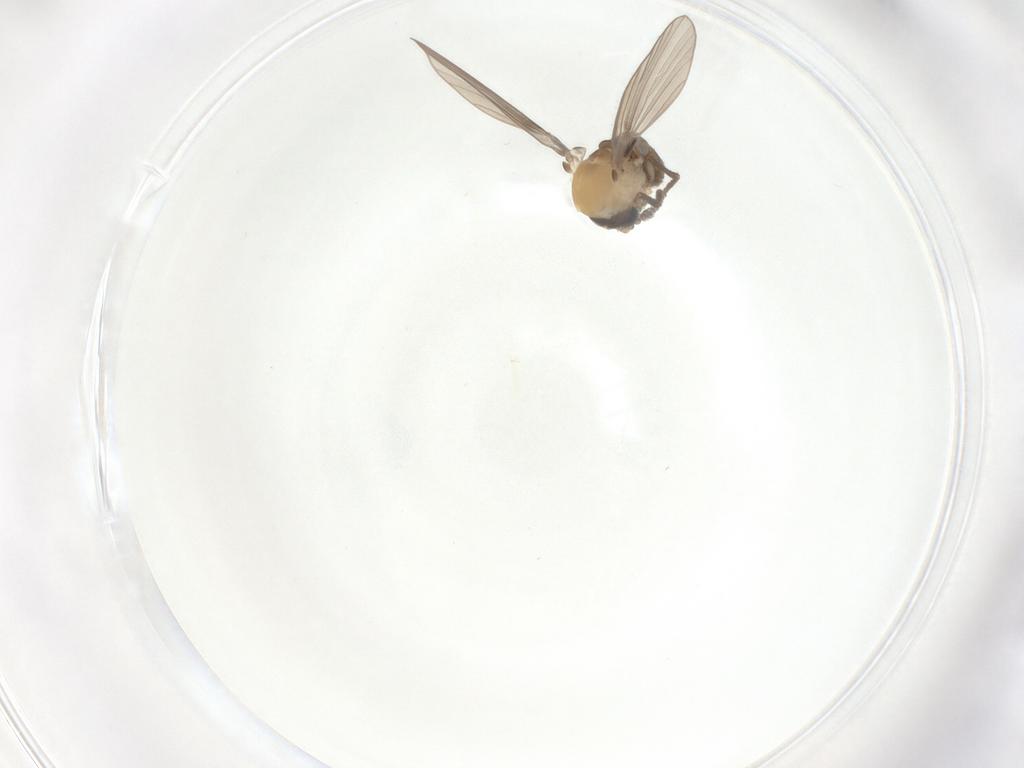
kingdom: Animalia
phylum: Arthropoda
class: Insecta
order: Diptera
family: Psychodidae
